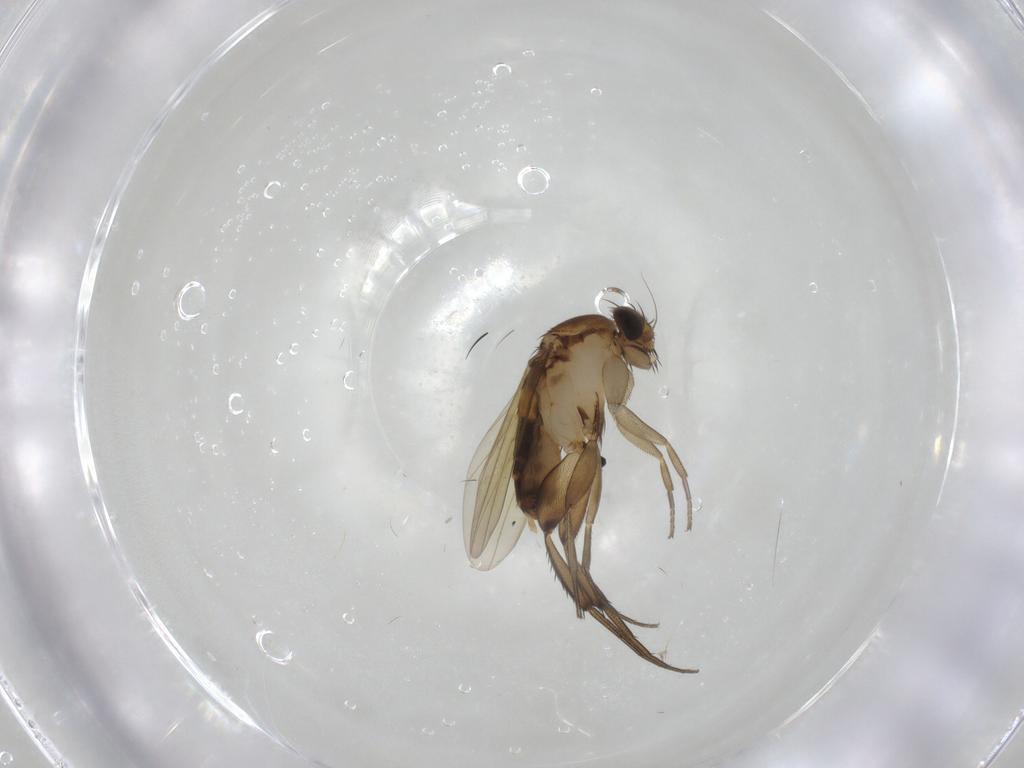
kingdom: Animalia
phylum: Arthropoda
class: Insecta
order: Diptera
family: Phoridae
